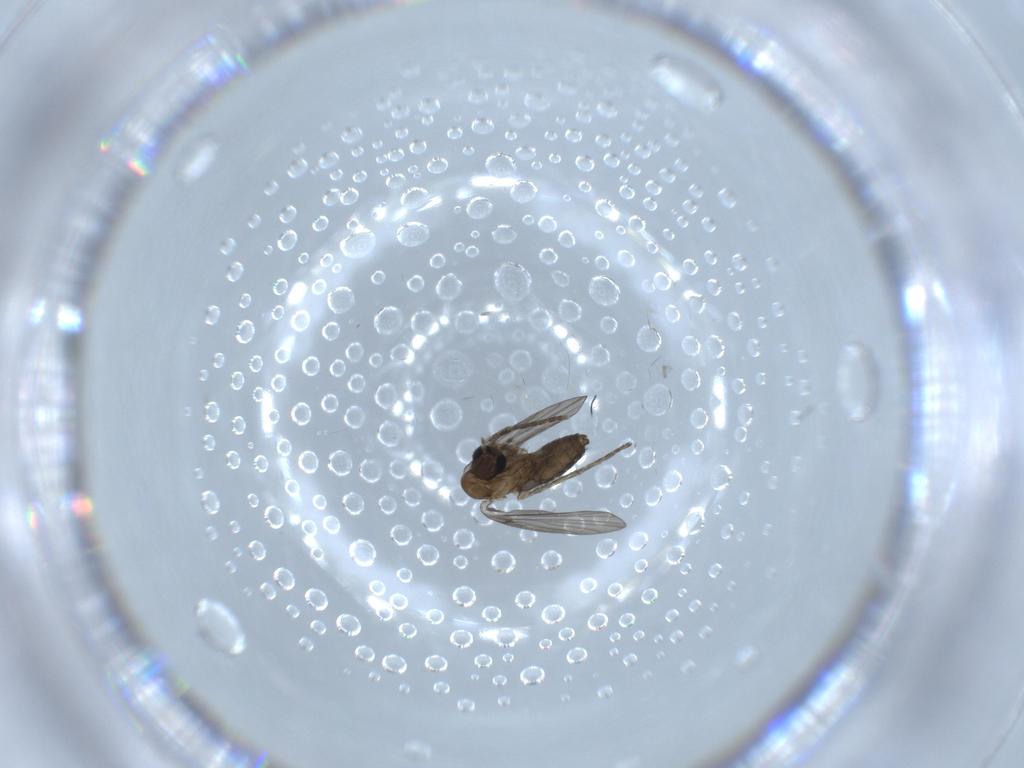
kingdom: Animalia
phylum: Arthropoda
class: Insecta
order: Diptera
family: Psychodidae
